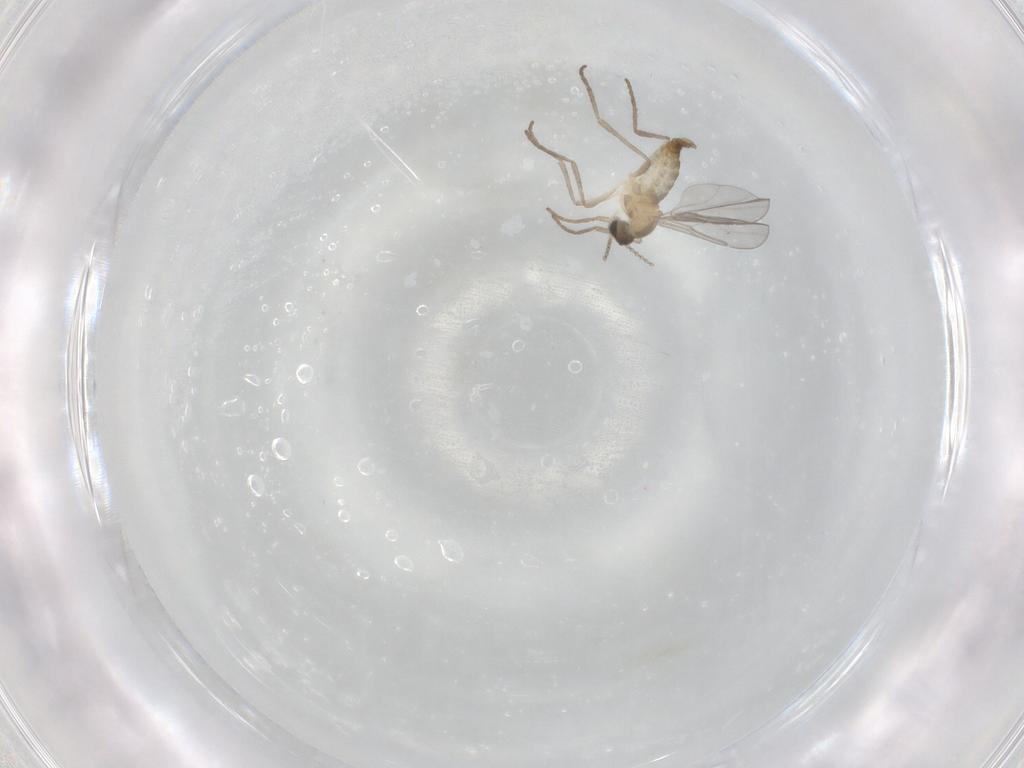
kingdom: Animalia
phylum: Arthropoda
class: Insecta
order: Diptera
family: Cecidomyiidae
